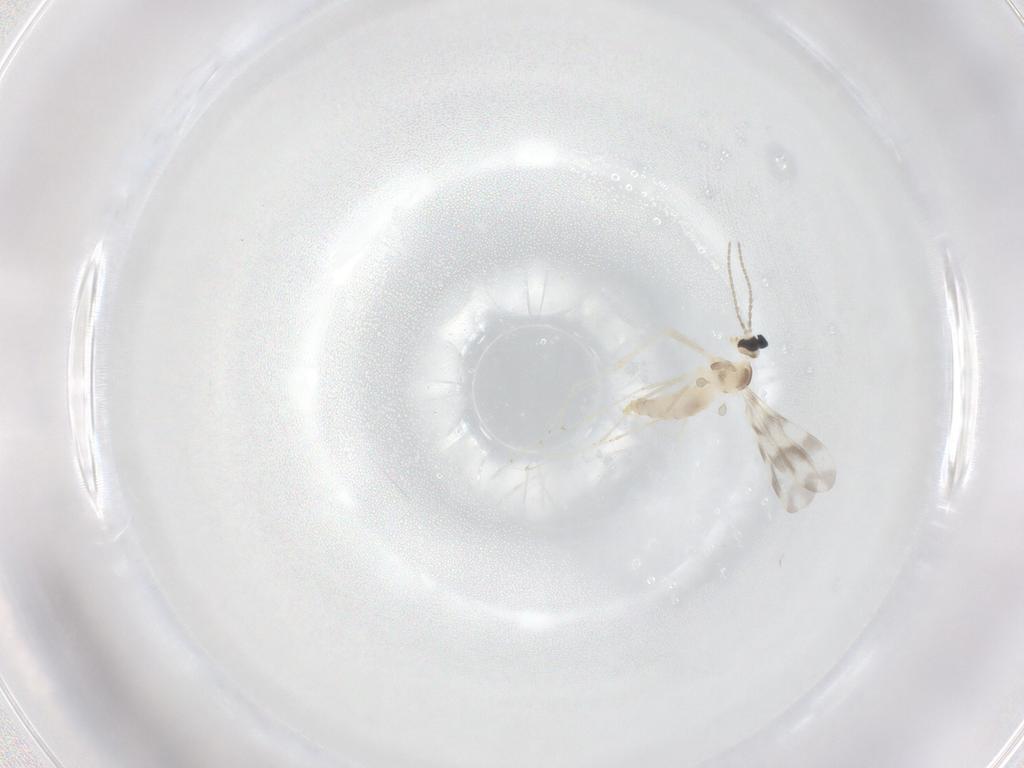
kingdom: Animalia
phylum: Arthropoda
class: Insecta
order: Diptera
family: Cecidomyiidae
